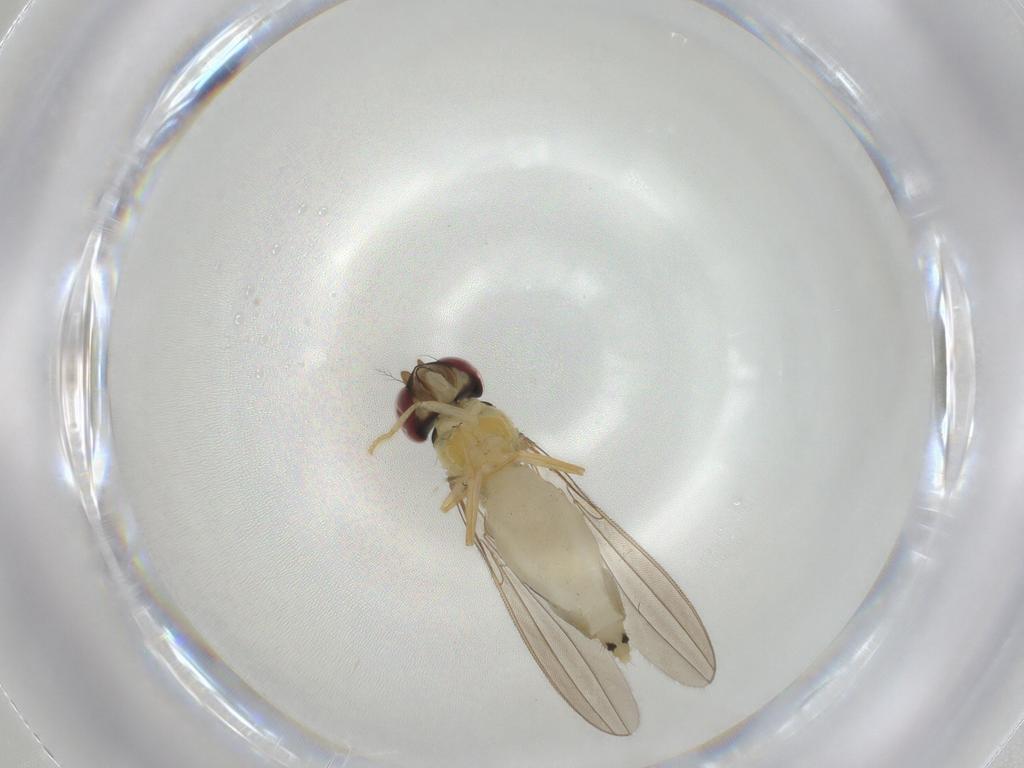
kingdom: Animalia
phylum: Arthropoda
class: Insecta
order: Diptera
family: Asteiidae
